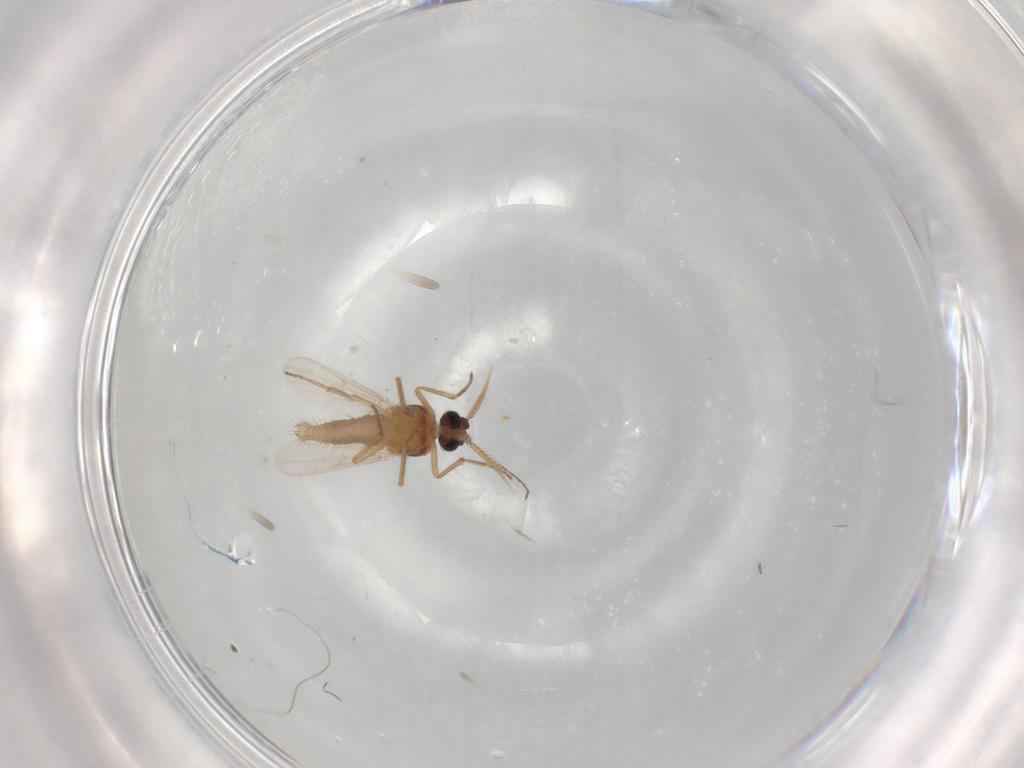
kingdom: Animalia
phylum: Arthropoda
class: Insecta
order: Diptera
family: Ceratopogonidae
